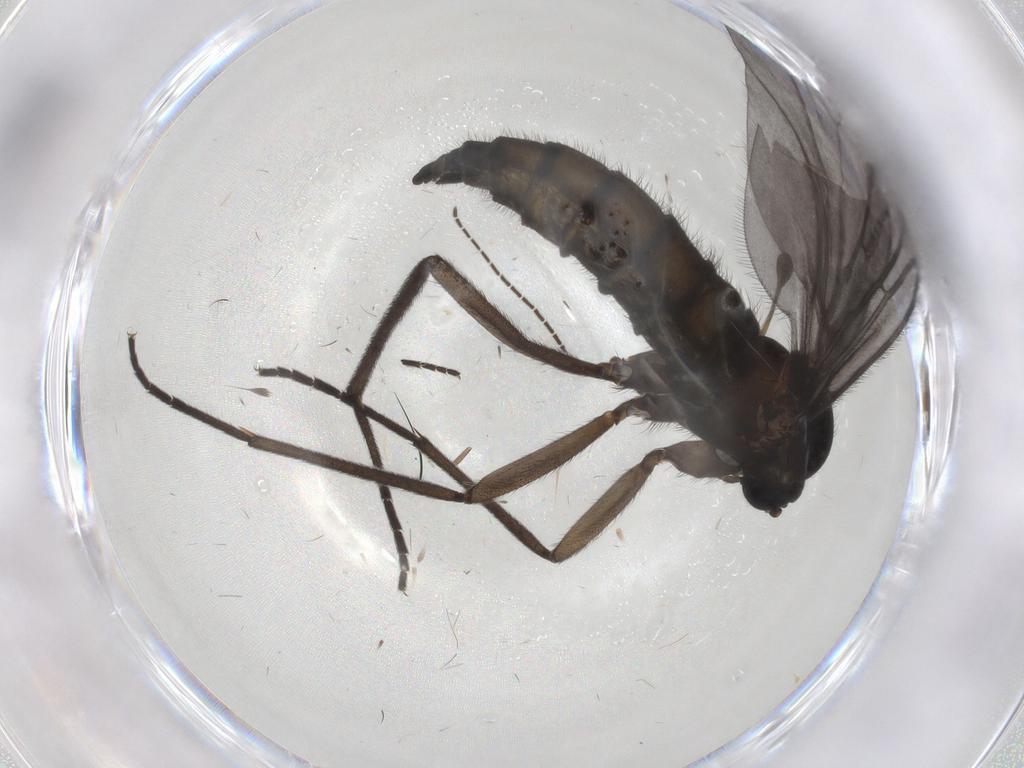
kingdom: Animalia
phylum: Arthropoda
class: Insecta
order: Diptera
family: Sciaridae
